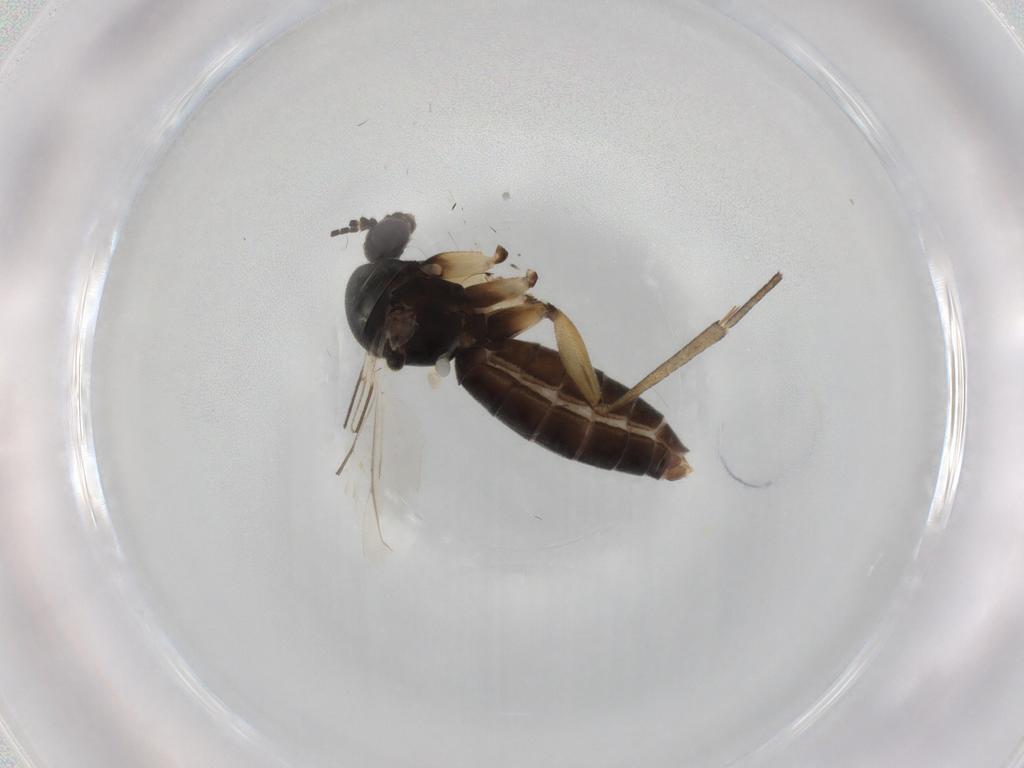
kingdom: Animalia
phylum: Arthropoda
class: Insecta
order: Diptera
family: Mycetophilidae
